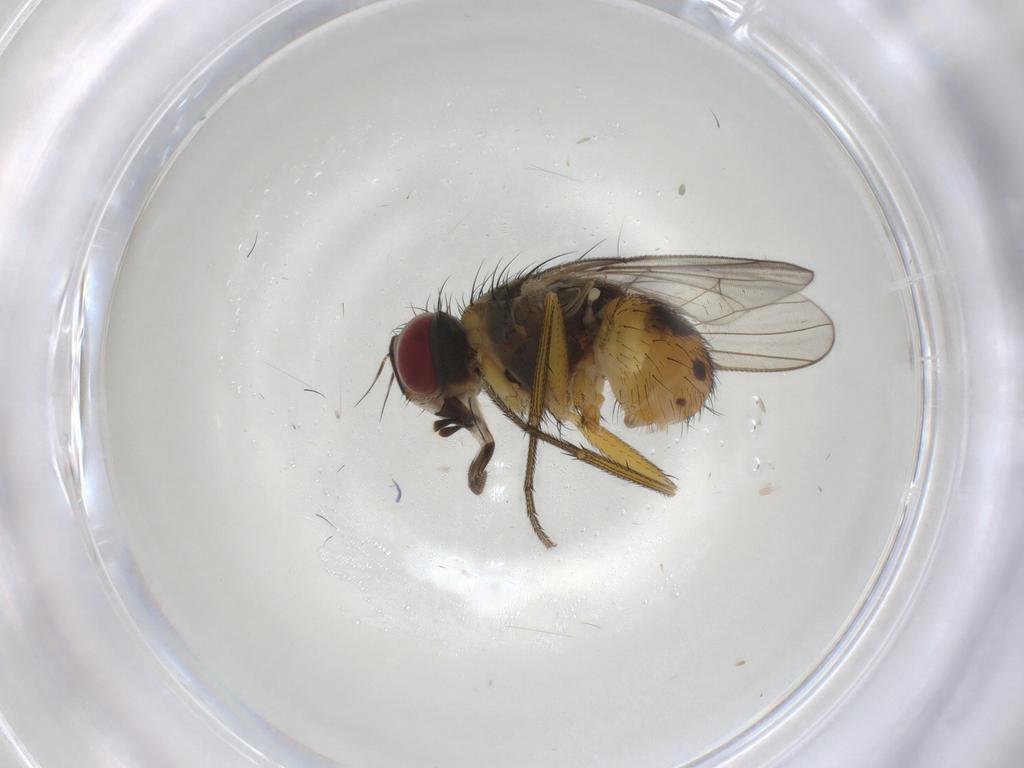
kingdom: Animalia
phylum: Arthropoda
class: Insecta
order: Diptera
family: Muscidae
